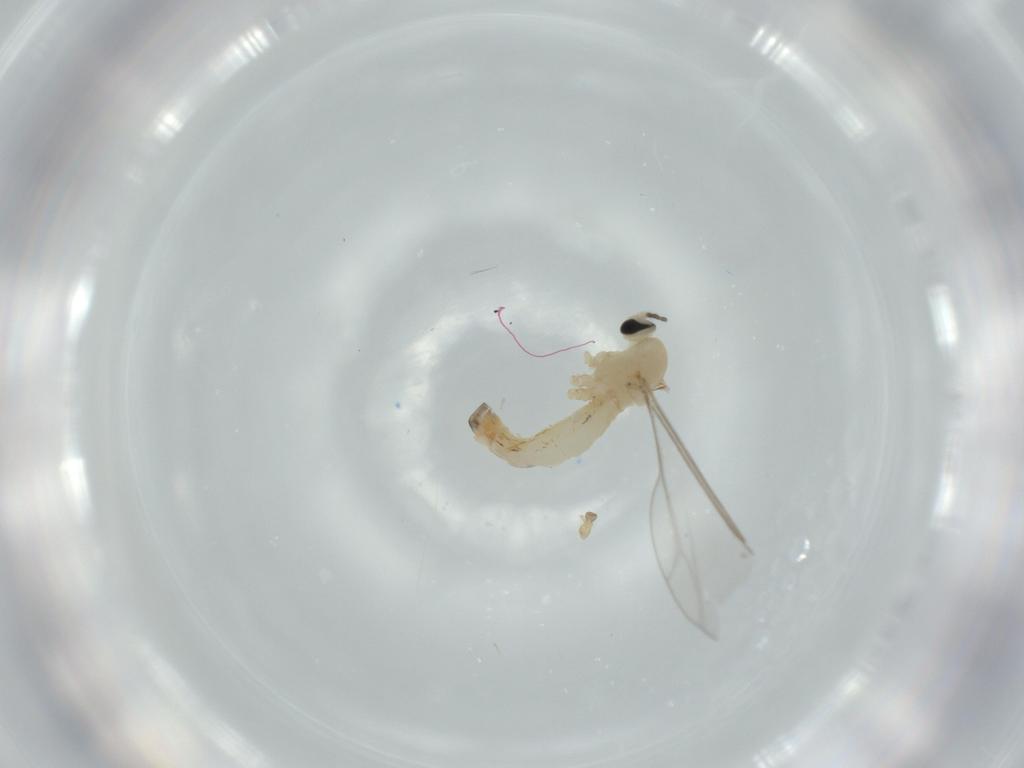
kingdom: Animalia
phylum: Arthropoda
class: Insecta
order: Diptera
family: Cecidomyiidae
